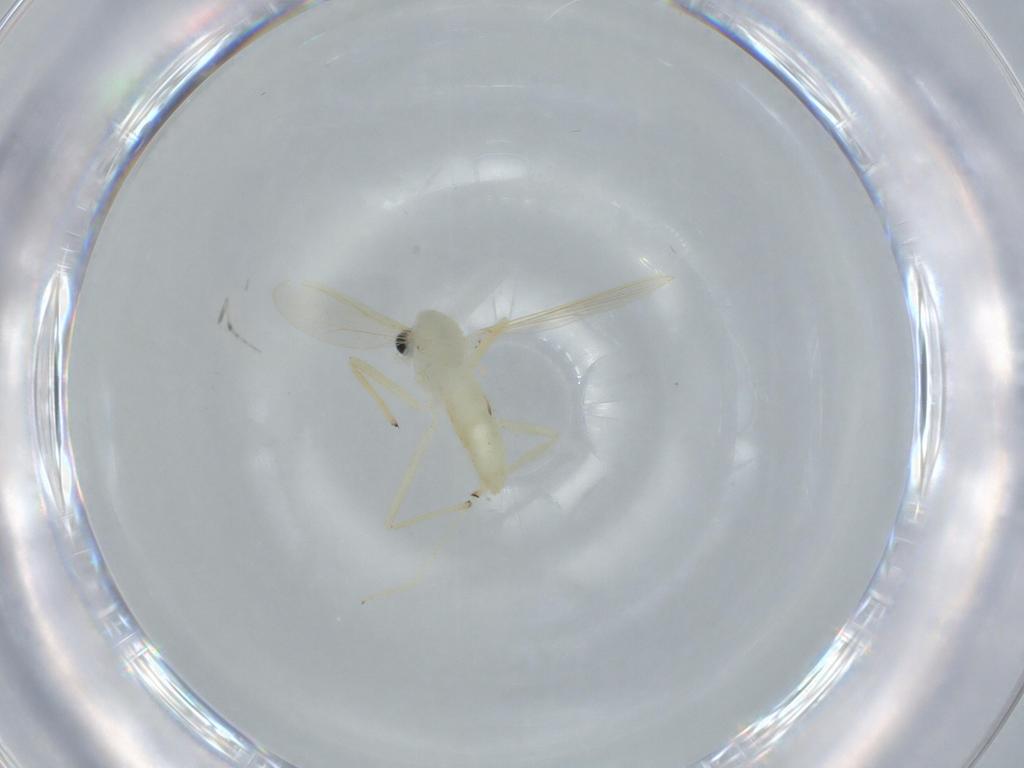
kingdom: Animalia
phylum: Arthropoda
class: Insecta
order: Diptera
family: Chironomidae
